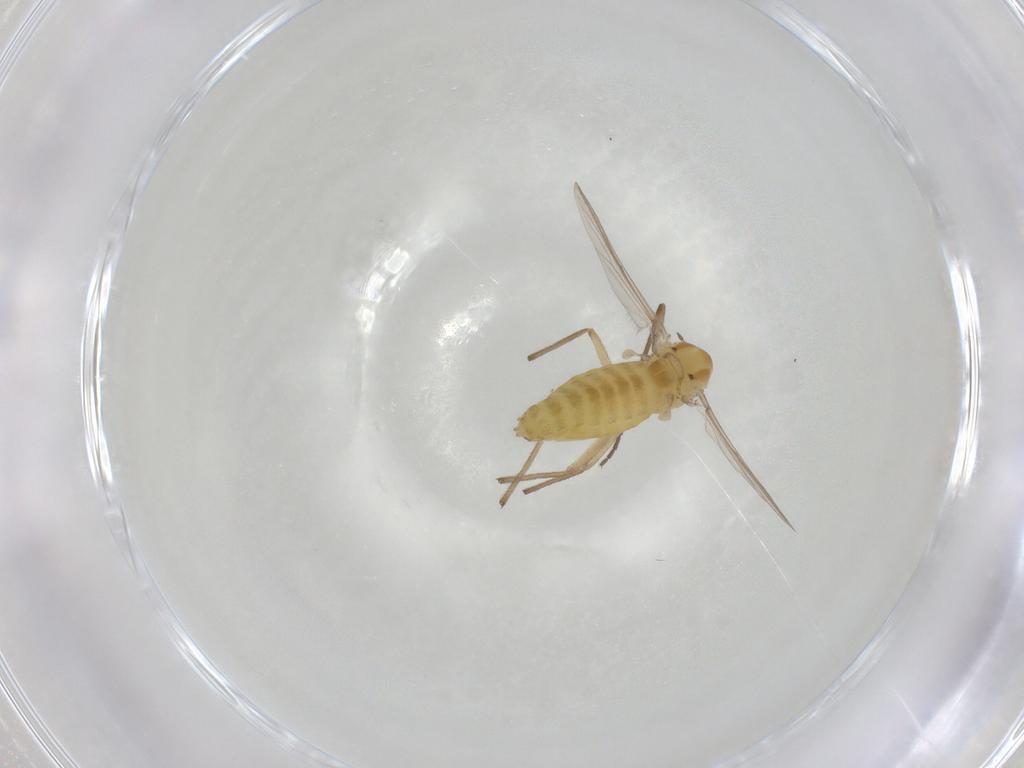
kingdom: Animalia
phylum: Arthropoda
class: Insecta
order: Diptera
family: Chironomidae
